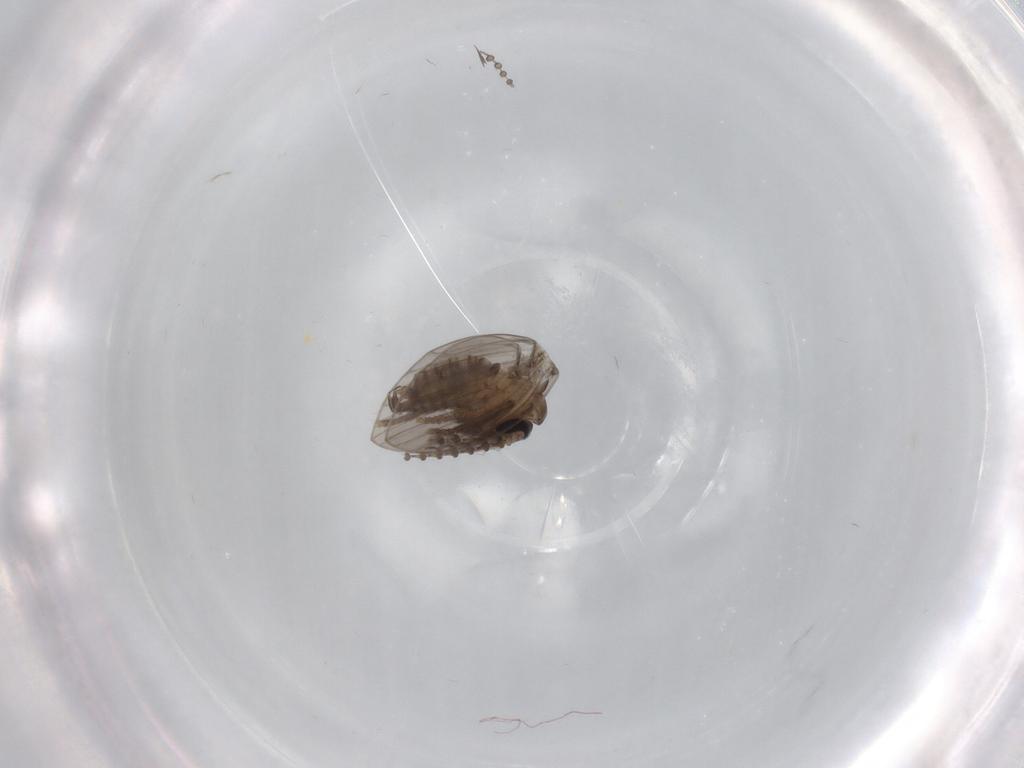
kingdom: Animalia
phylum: Arthropoda
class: Insecta
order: Diptera
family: Psychodidae
